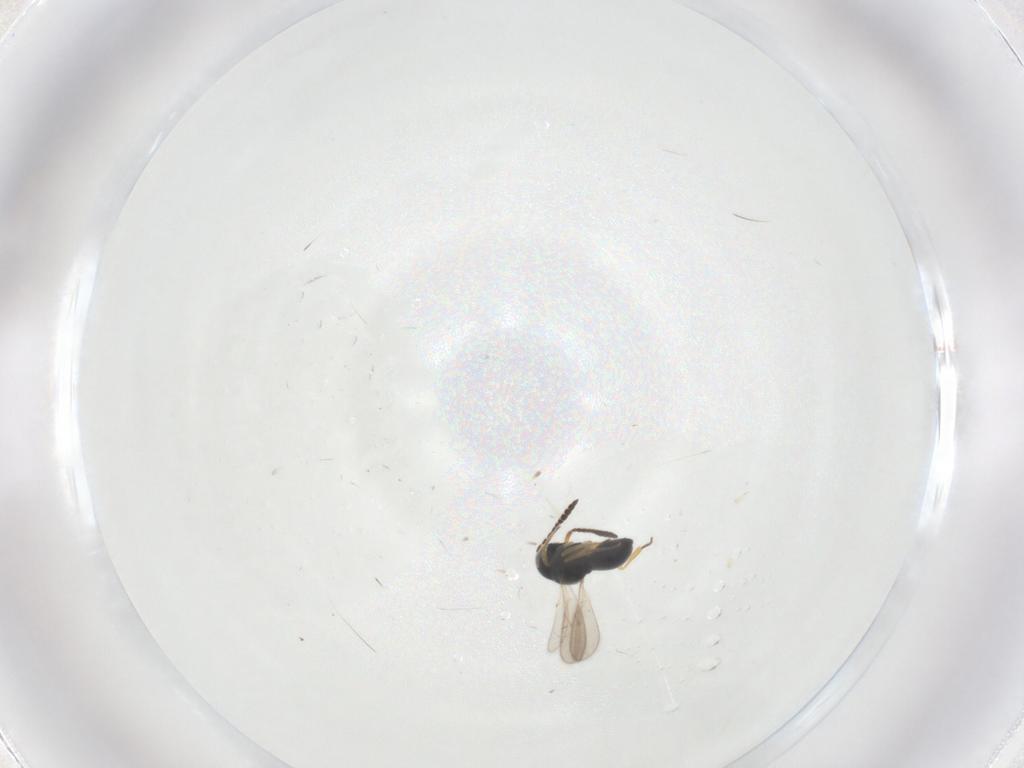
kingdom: Animalia
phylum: Arthropoda
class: Insecta
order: Hymenoptera
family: Scelionidae
